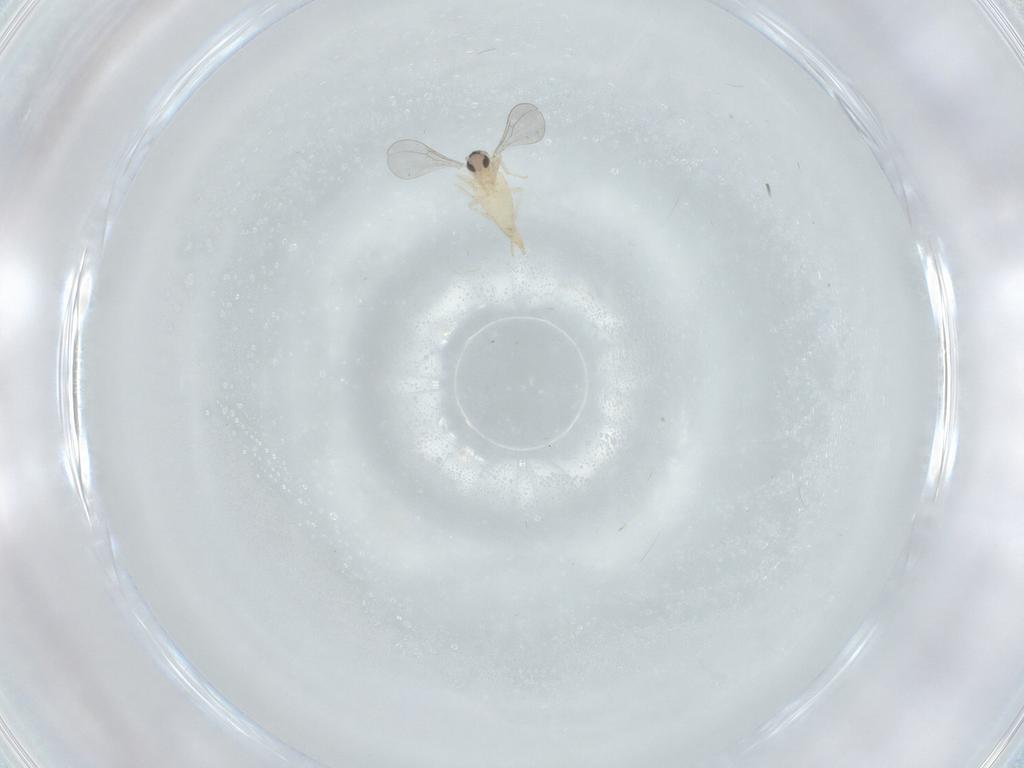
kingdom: Animalia
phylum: Arthropoda
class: Insecta
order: Diptera
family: Cecidomyiidae
